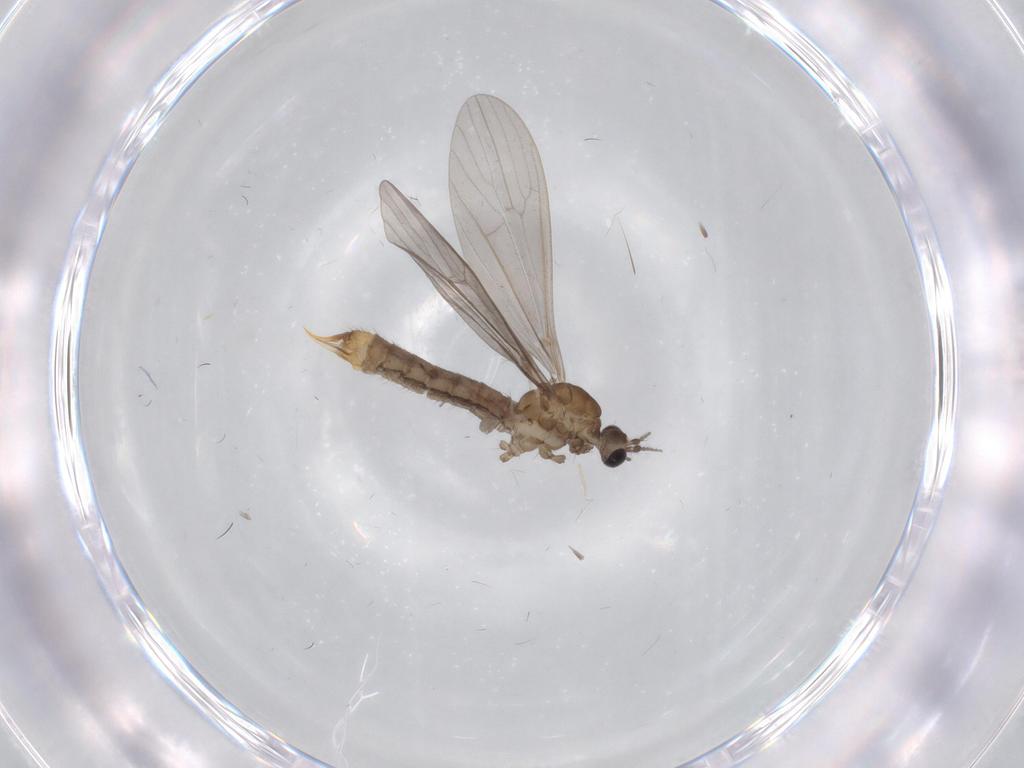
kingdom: Animalia
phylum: Arthropoda
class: Insecta
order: Diptera
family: Limoniidae
